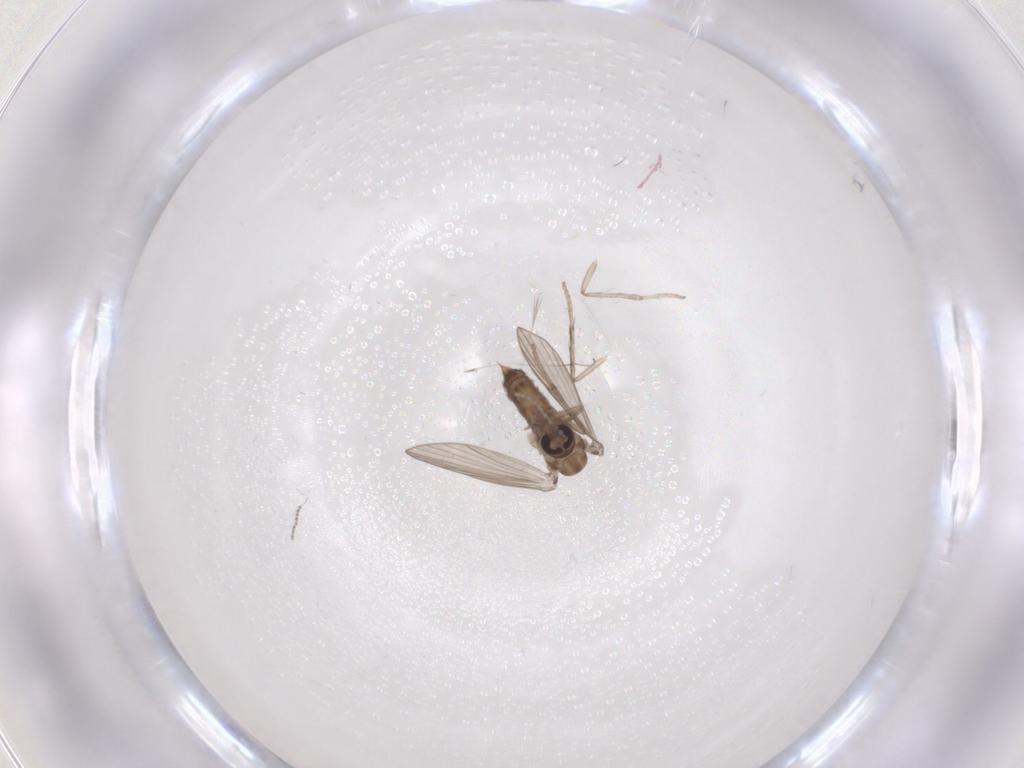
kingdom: Animalia
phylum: Arthropoda
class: Insecta
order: Diptera
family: Psychodidae
